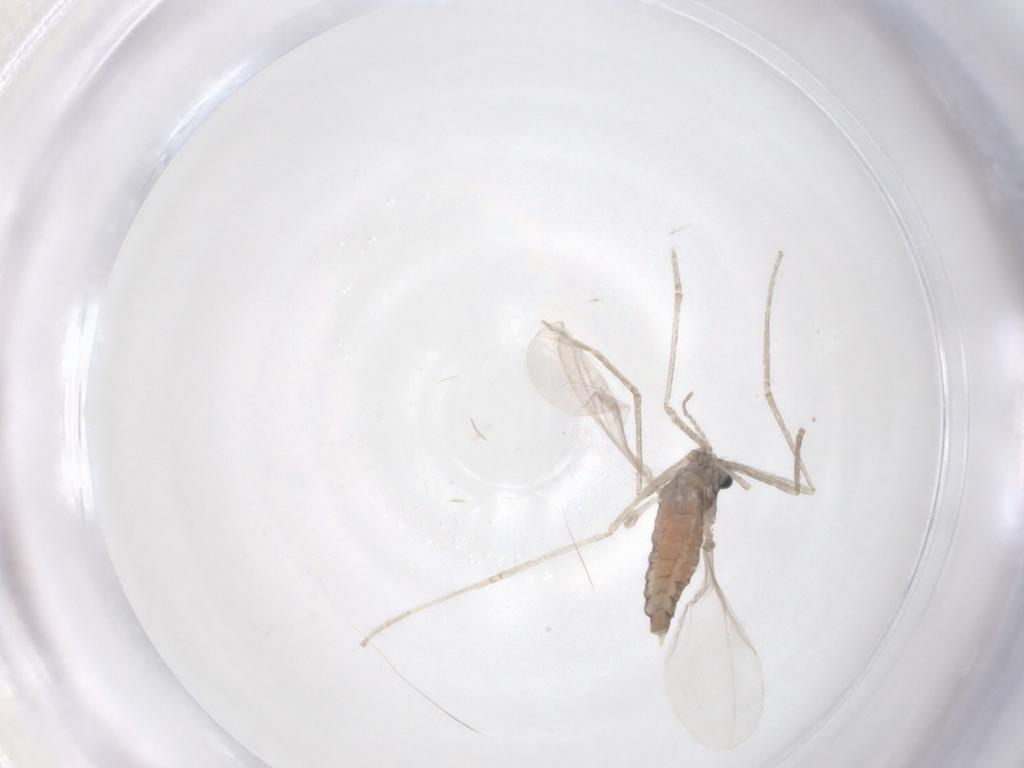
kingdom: Animalia
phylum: Arthropoda
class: Insecta
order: Diptera
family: Cecidomyiidae
